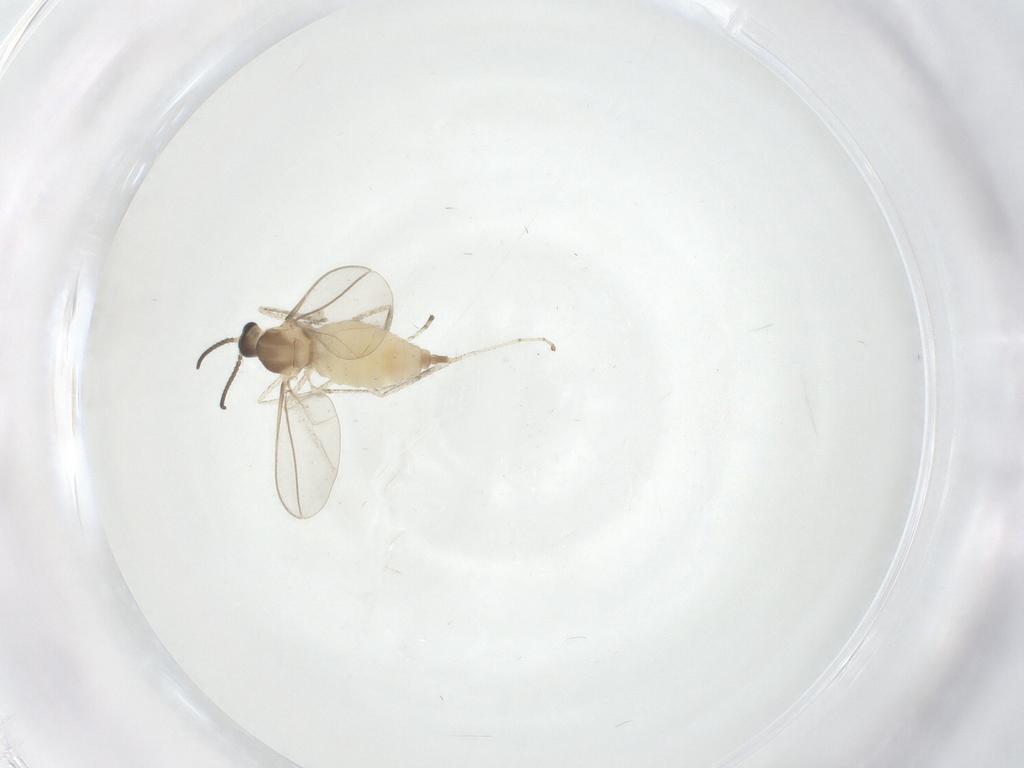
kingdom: Animalia
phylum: Arthropoda
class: Insecta
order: Diptera
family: Cecidomyiidae
